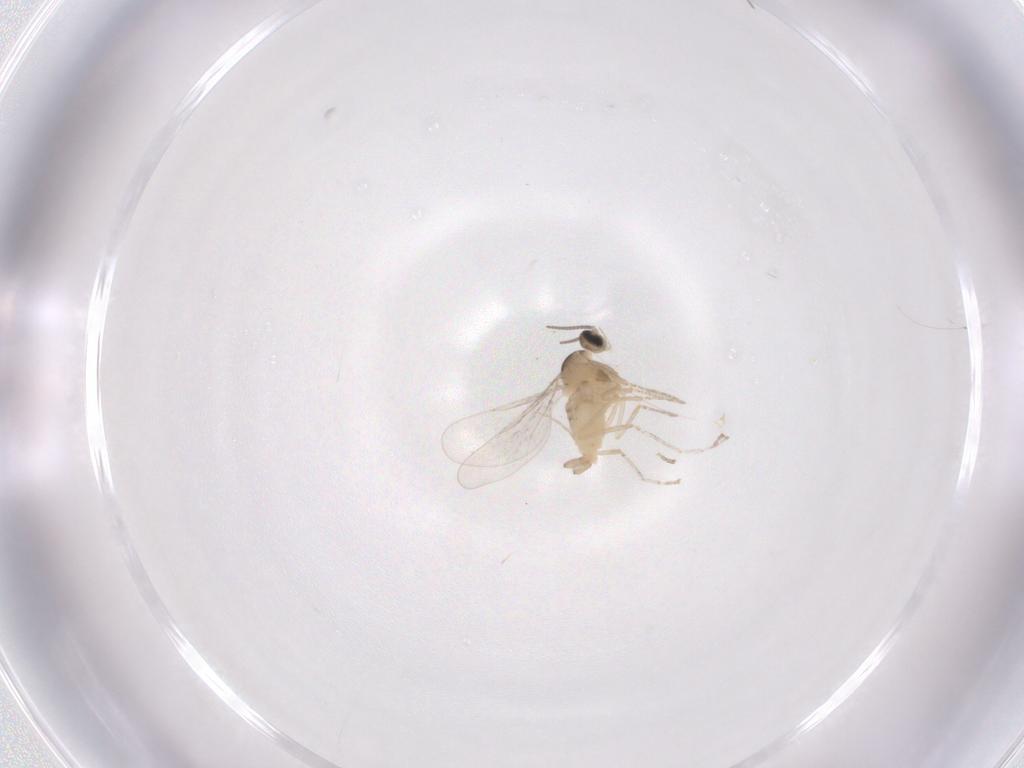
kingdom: Animalia
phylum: Arthropoda
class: Insecta
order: Diptera
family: Cecidomyiidae
